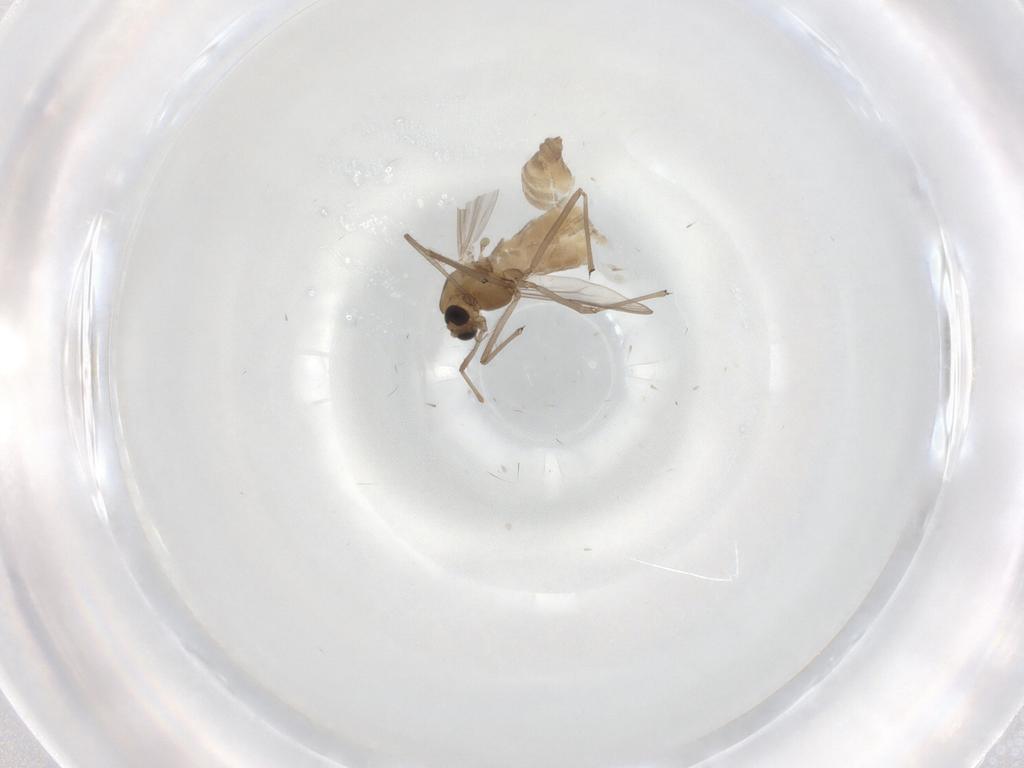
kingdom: Animalia
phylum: Arthropoda
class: Insecta
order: Diptera
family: Chironomidae
